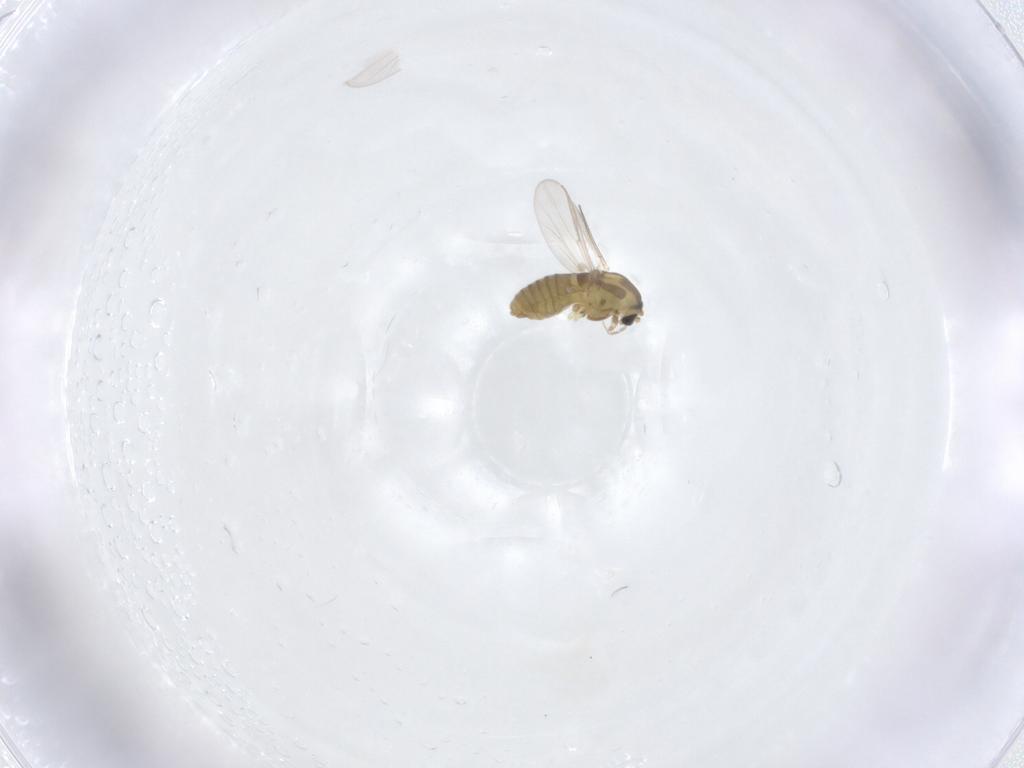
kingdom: Animalia
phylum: Arthropoda
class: Insecta
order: Diptera
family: Chironomidae
